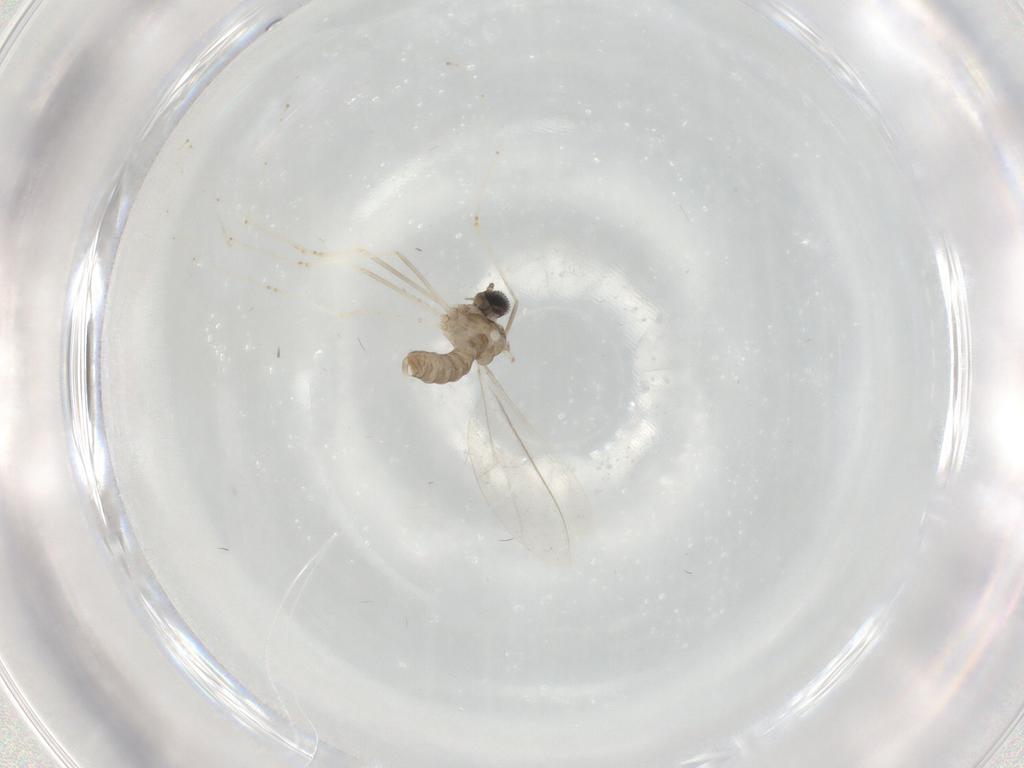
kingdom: Animalia
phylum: Arthropoda
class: Insecta
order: Diptera
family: Cecidomyiidae
